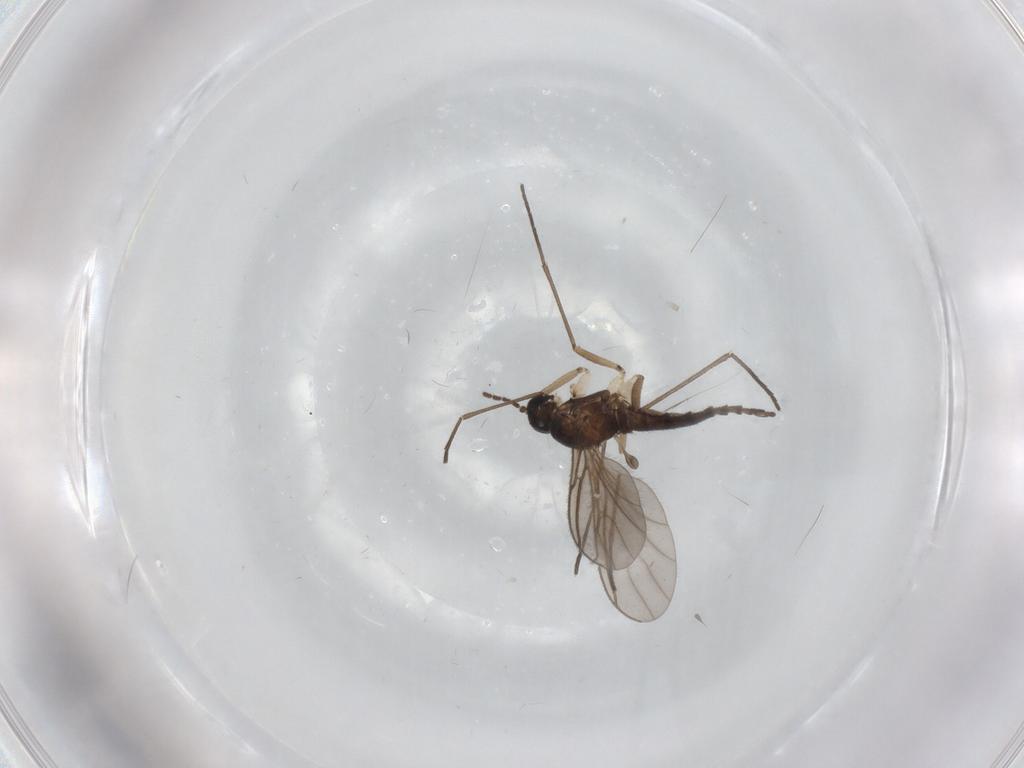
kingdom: Animalia
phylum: Arthropoda
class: Insecta
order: Diptera
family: Sciaridae
